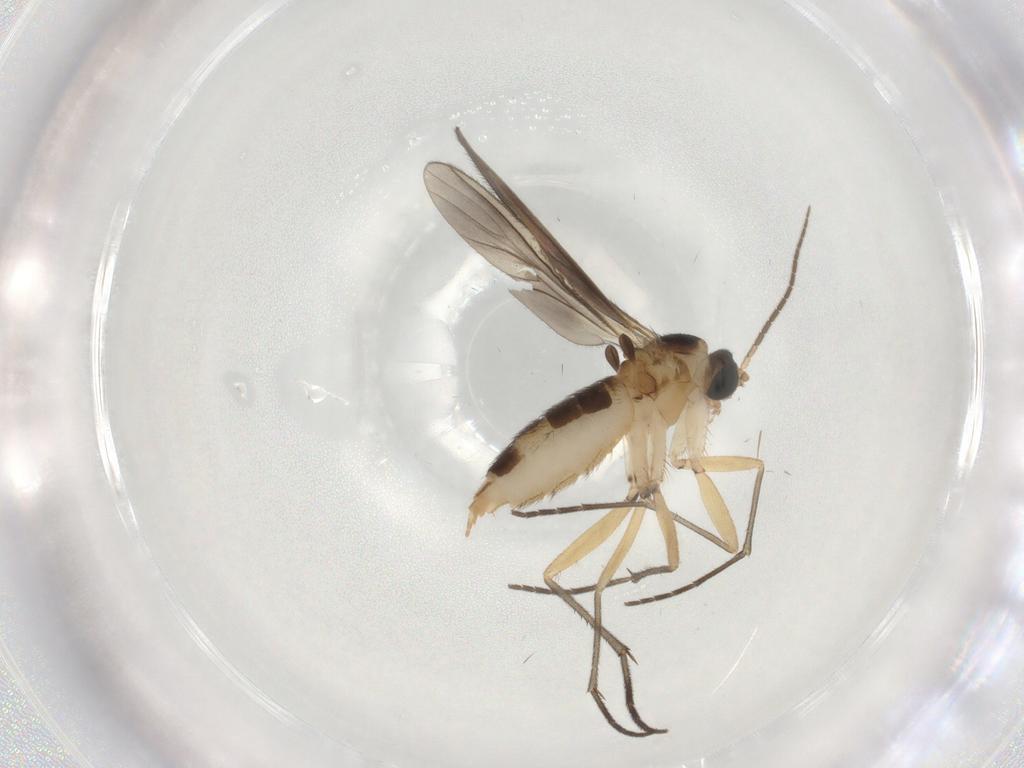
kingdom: Animalia
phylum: Arthropoda
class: Insecta
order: Diptera
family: Sciaridae
